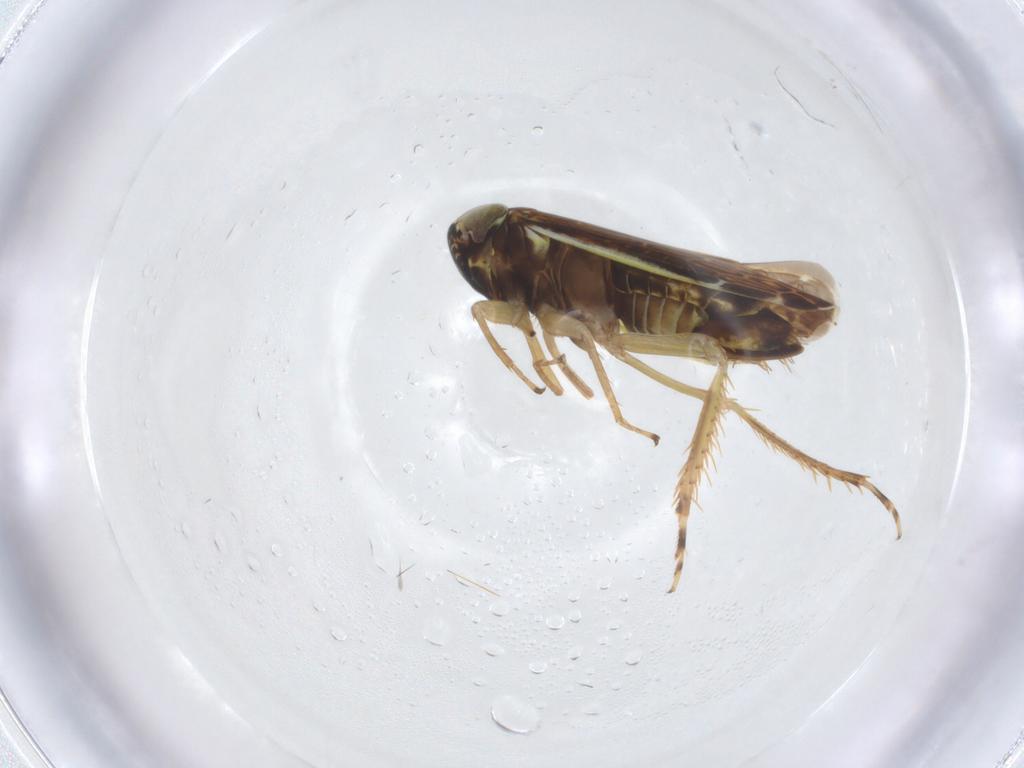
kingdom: Animalia
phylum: Arthropoda
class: Insecta
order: Hemiptera
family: Cicadellidae
